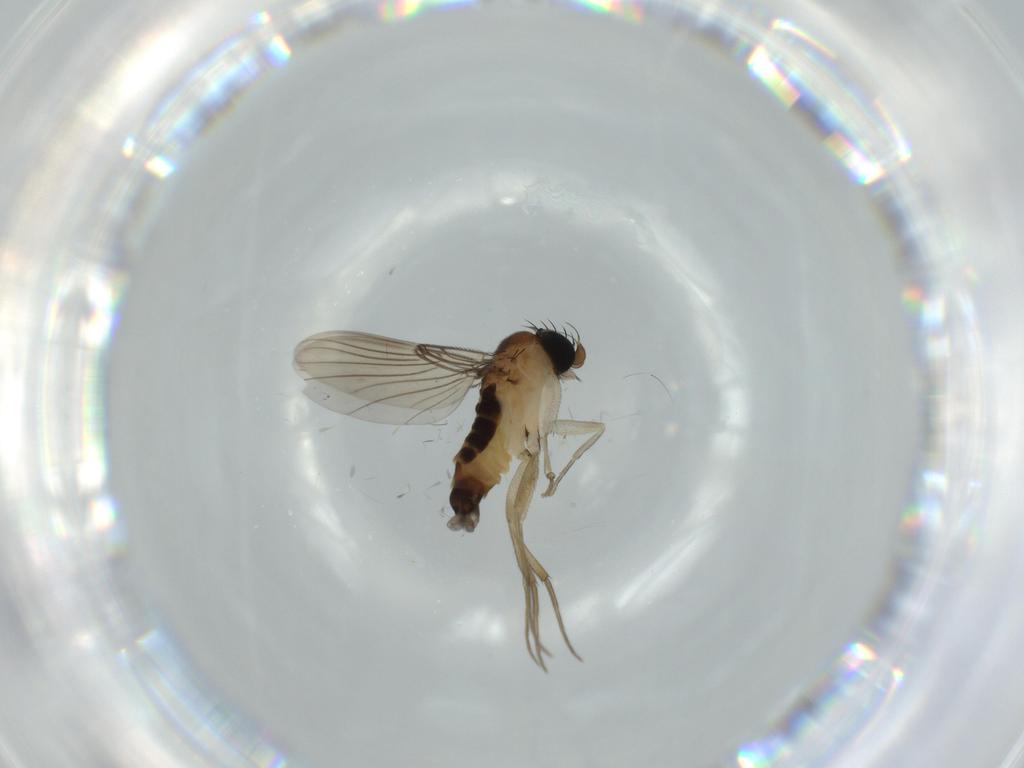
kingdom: Animalia
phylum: Arthropoda
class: Insecta
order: Diptera
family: Phoridae
